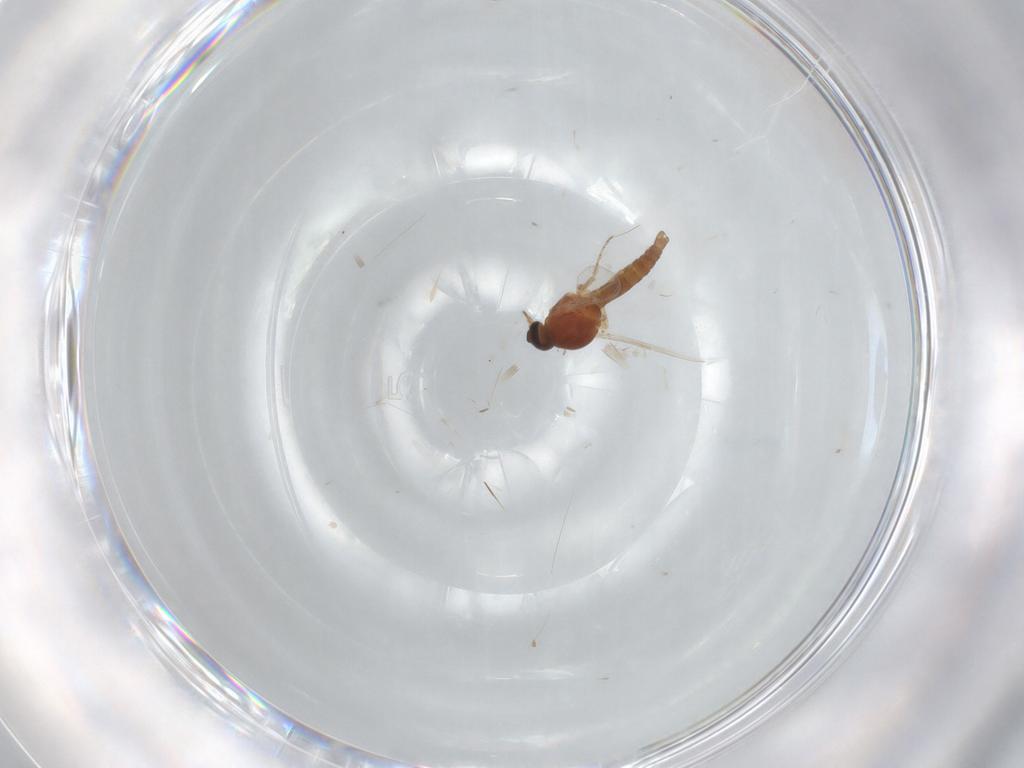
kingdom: Animalia
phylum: Arthropoda
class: Insecta
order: Diptera
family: Ceratopogonidae
